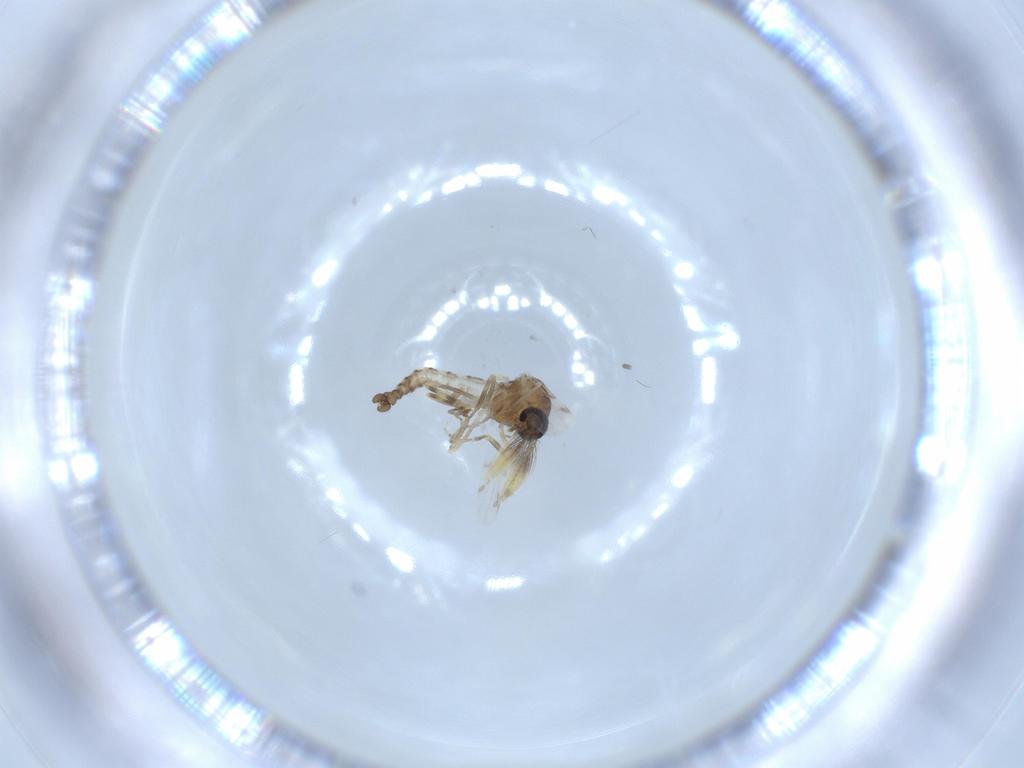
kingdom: Animalia
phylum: Arthropoda
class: Insecta
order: Diptera
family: Ceratopogonidae
